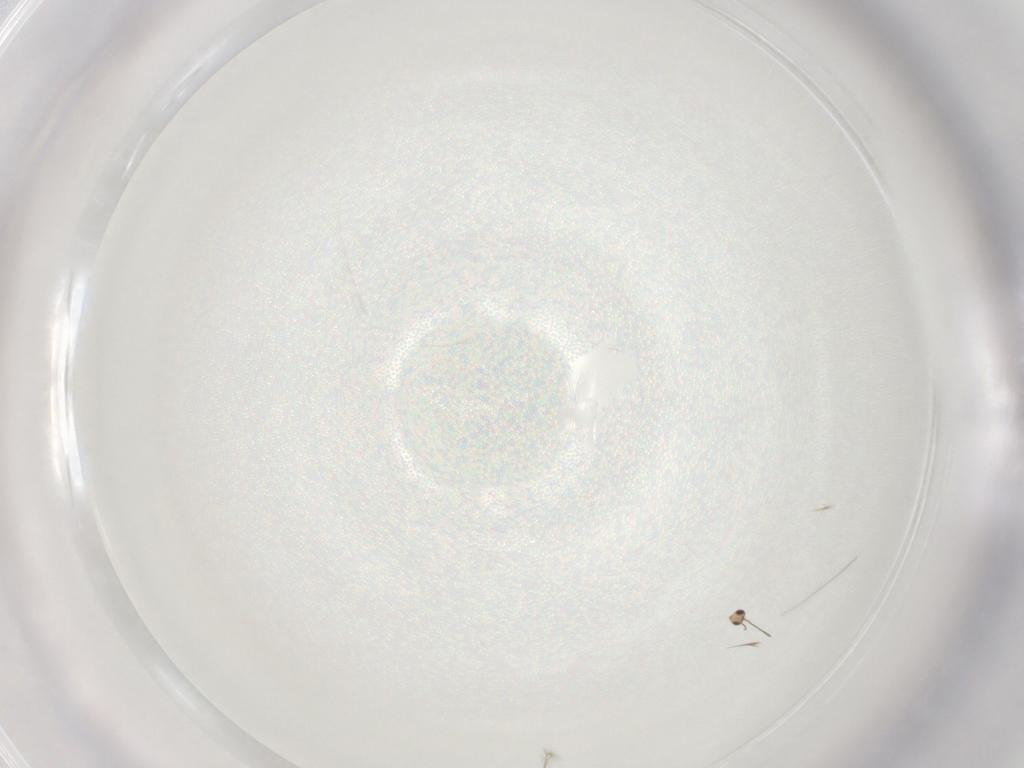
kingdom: Animalia
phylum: Arthropoda
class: Insecta
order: Hymenoptera
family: Mymaridae
